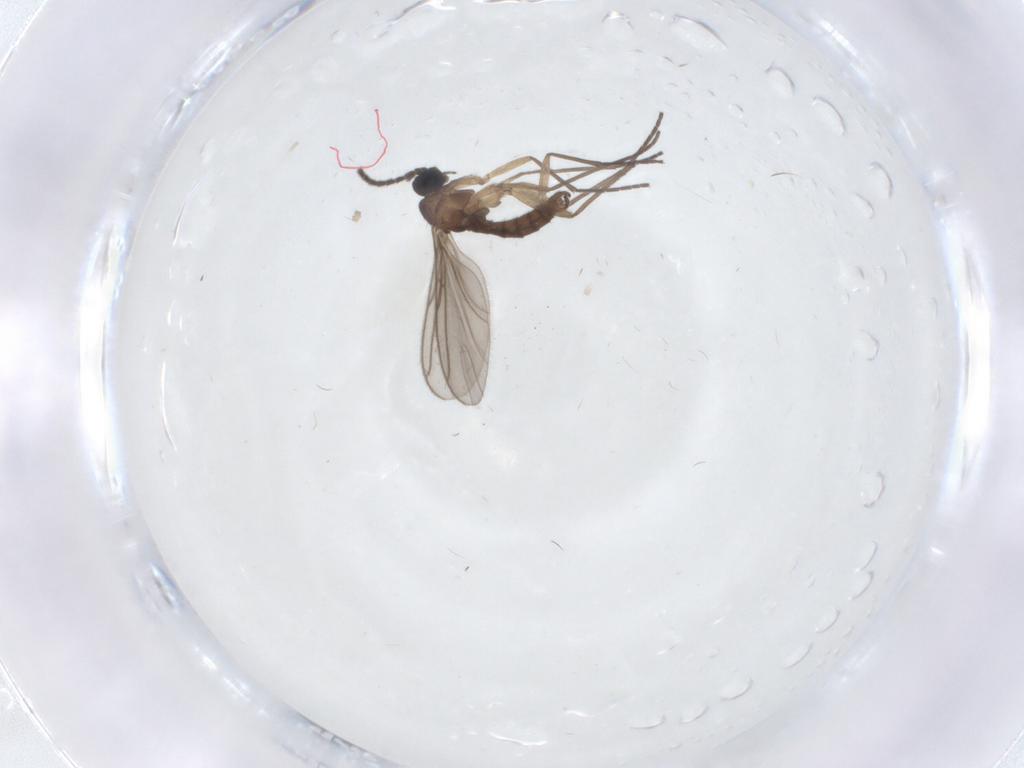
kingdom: Animalia
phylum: Arthropoda
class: Insecta
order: Diptera
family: Sciaridae
